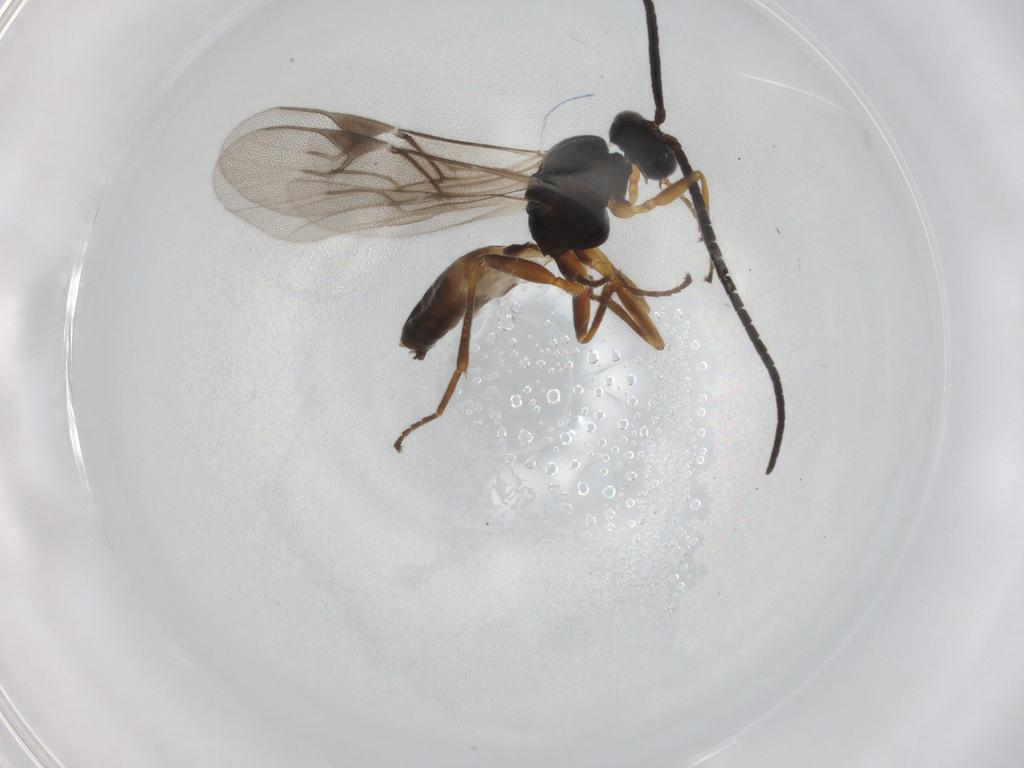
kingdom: Animalia
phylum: Arthropoda
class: Insecta
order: Hymenoptera
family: Braconidae
